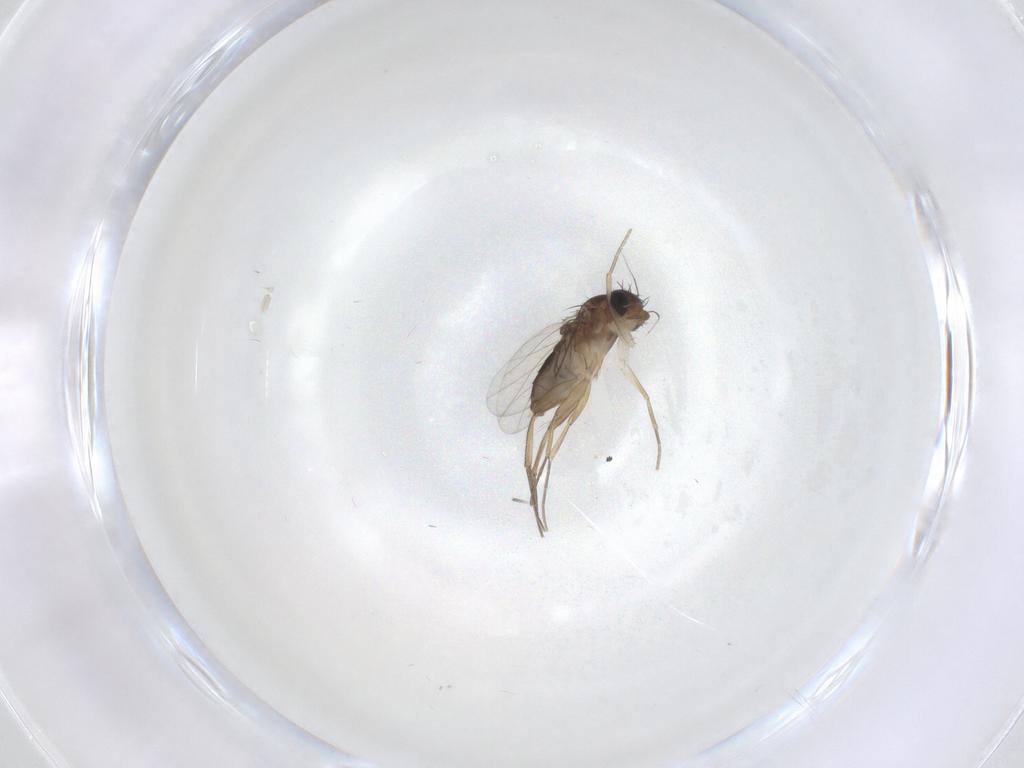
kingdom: Animalia
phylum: Arthropoda
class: Insecta
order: Diptera
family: Phoridae
